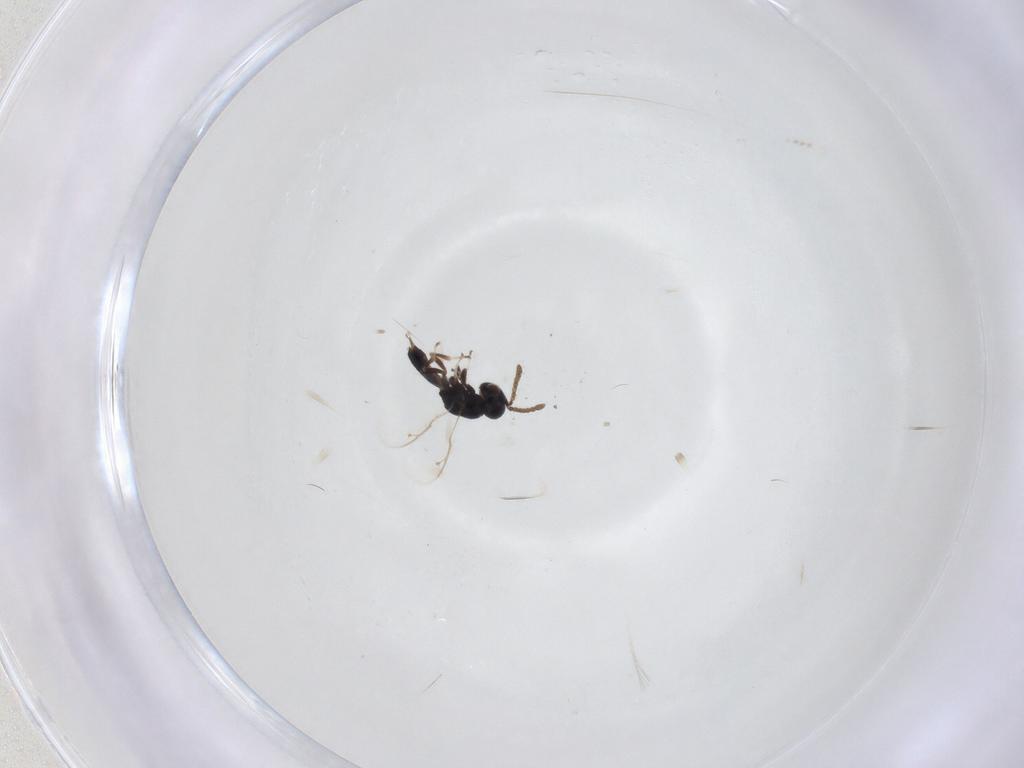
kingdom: Animalia
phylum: Arthropoda
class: Insecta
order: Hymenoptera
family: Pteromalidae
